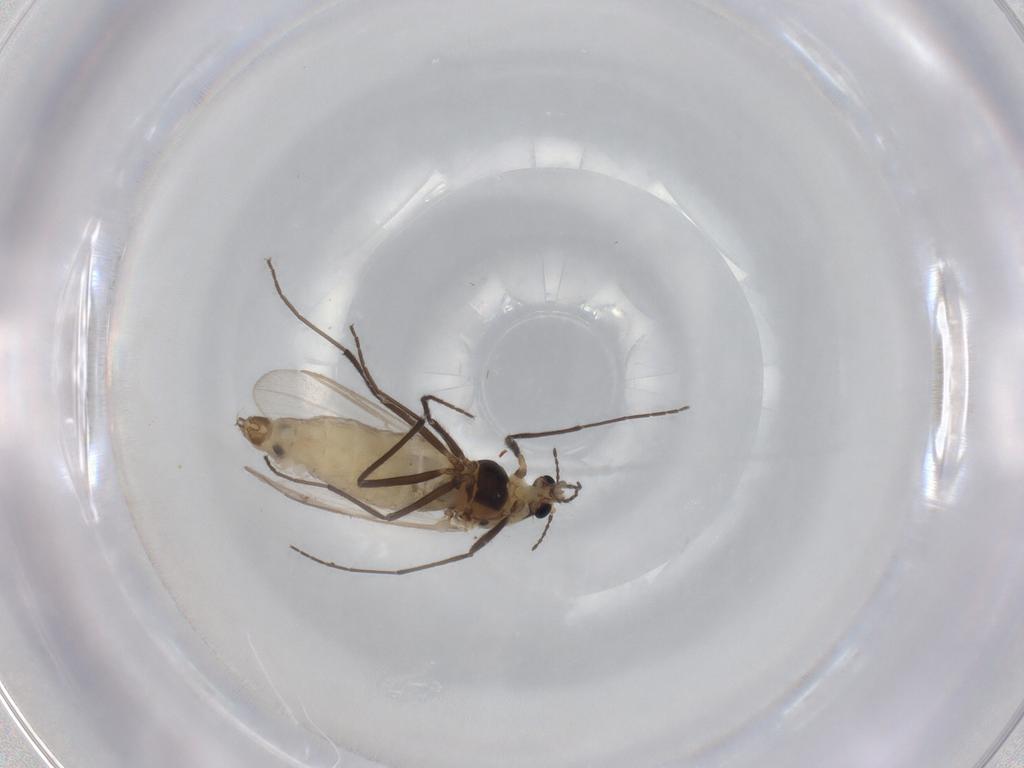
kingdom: Animalia
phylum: Arthropoda
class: Insecta
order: Diptera
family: Chironomidae
